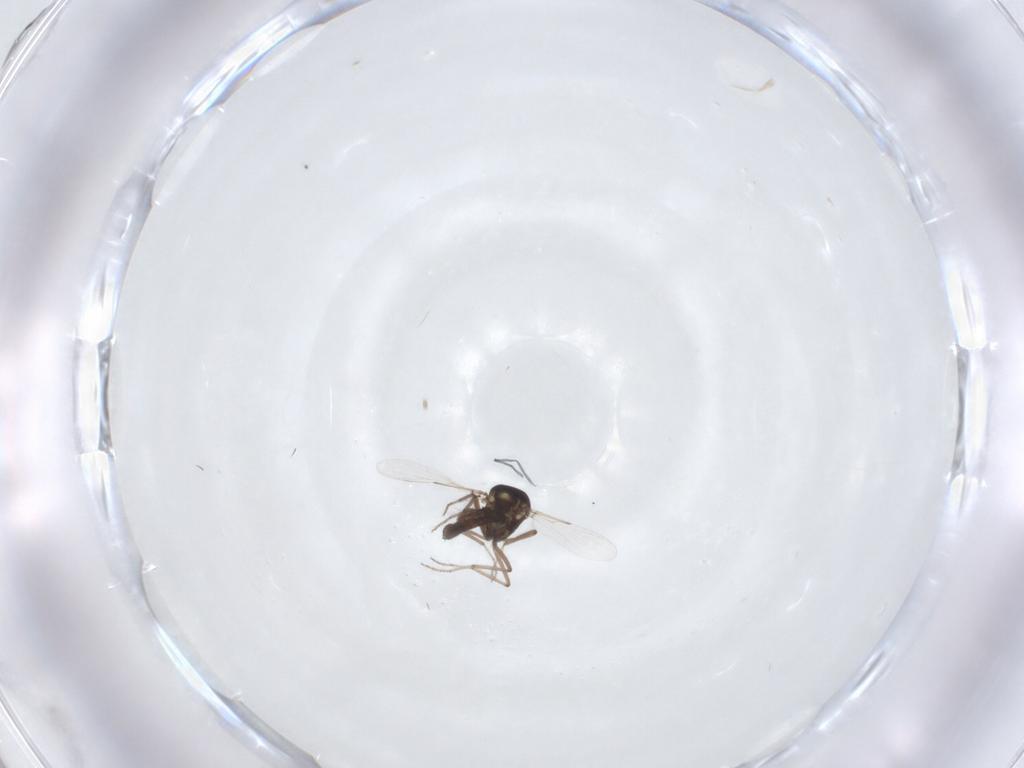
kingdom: Animalia
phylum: Arthropoda
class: Insecta
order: Diptera
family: Ceratopogonidae
